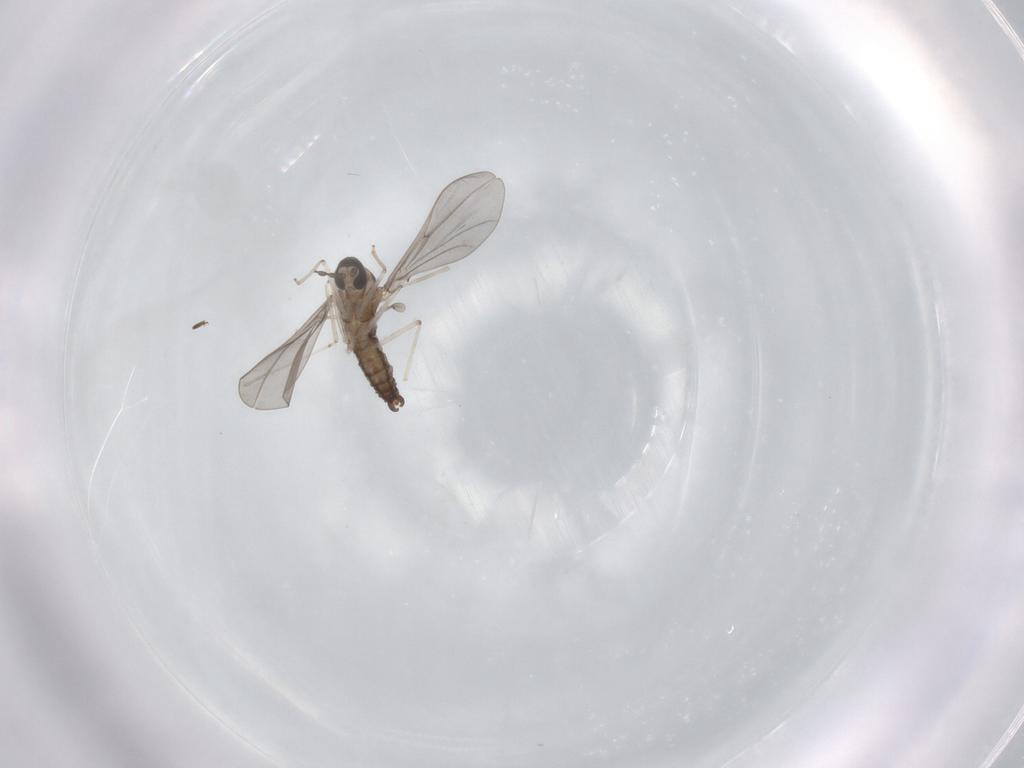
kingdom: Animalia
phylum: Arthropoda
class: Insecta
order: Diptera
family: Cecidomyiidae
